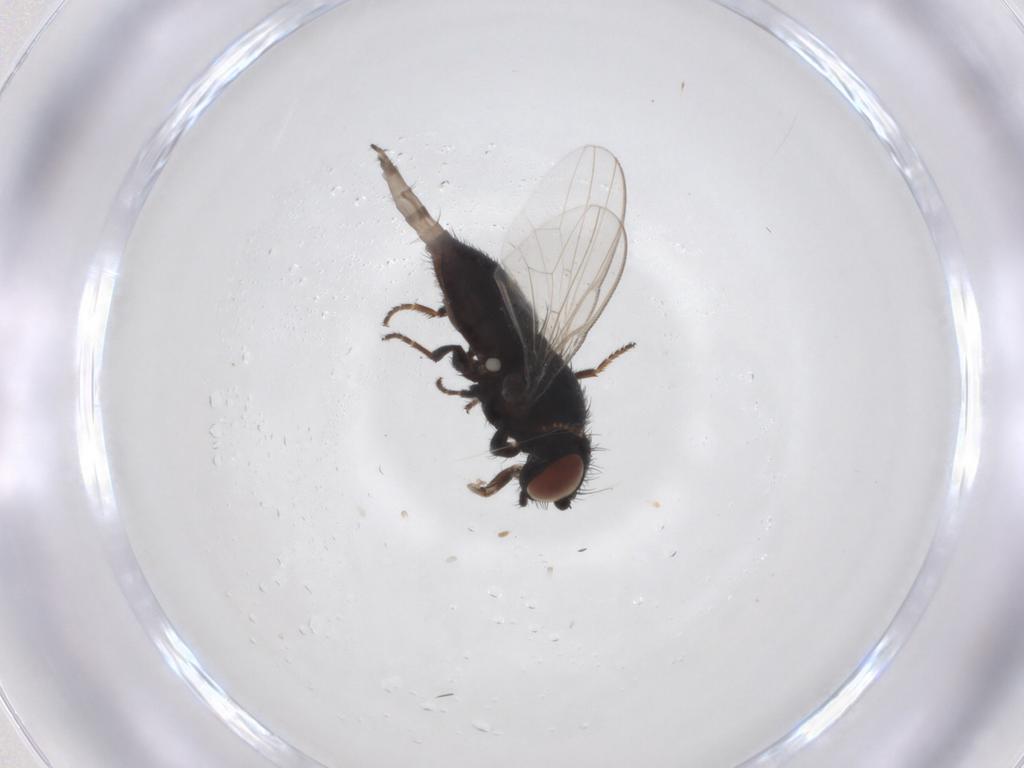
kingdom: Animalia
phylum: Arthropoda
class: Insecta
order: Diptera
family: Milichiidae
